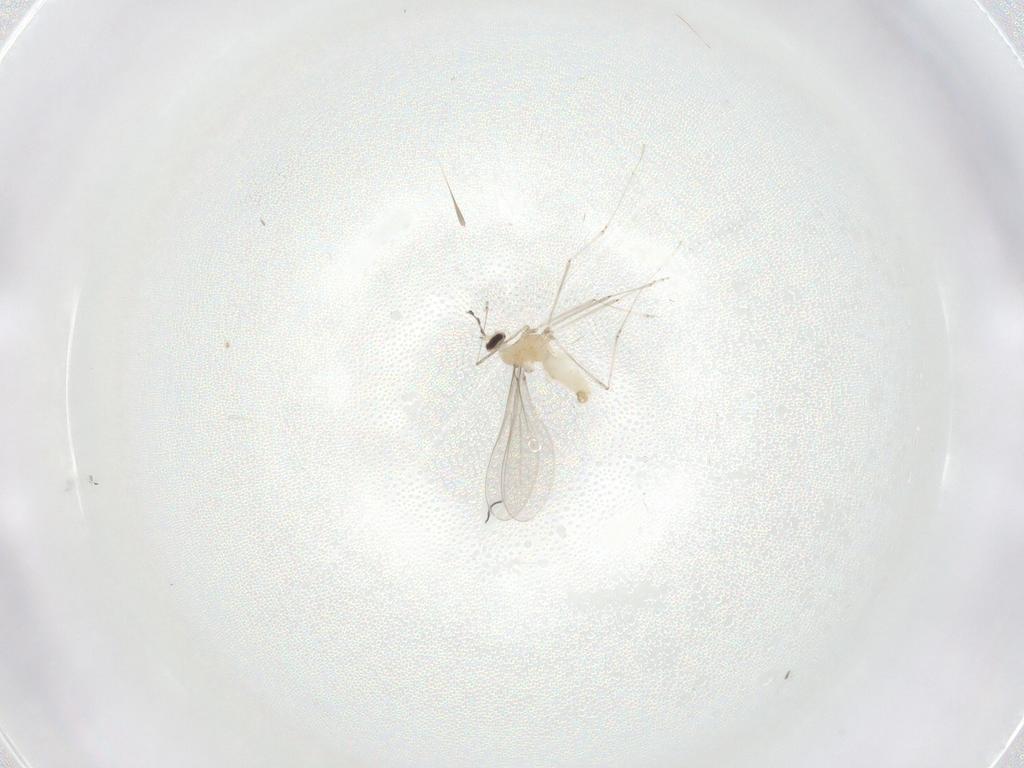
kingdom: Animalia
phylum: Arthropoda
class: Insecta
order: Diptera
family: Cecidomyiidae
